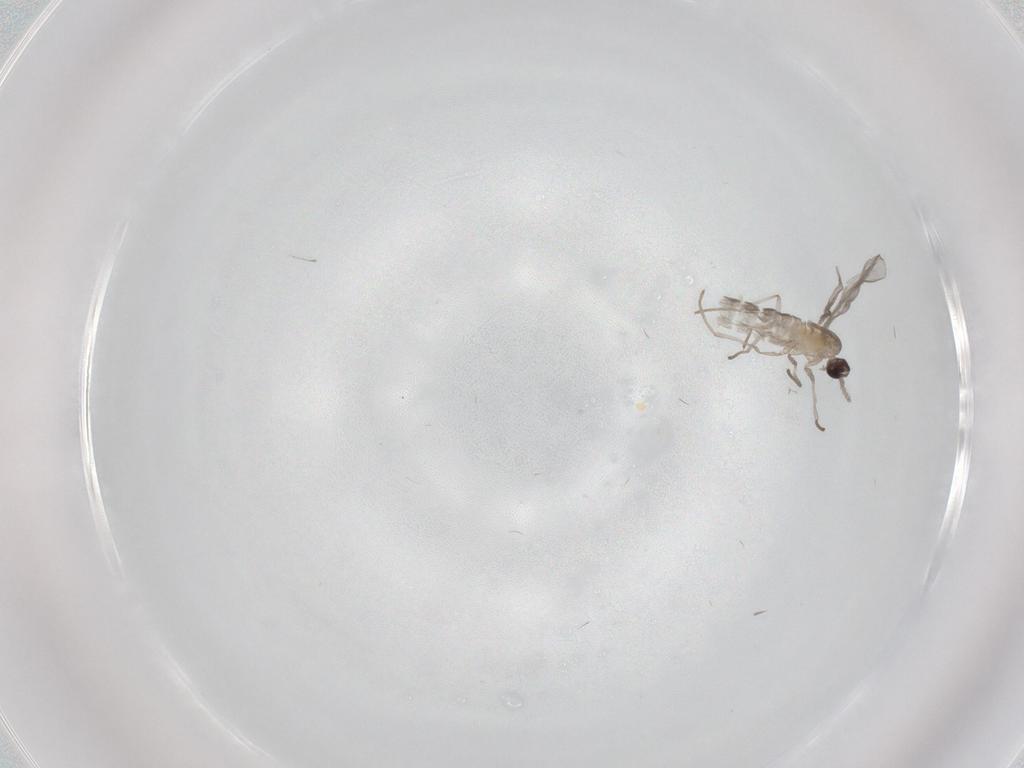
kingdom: Animalia
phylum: Arthropoda
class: Insecta
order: Diptera
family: Cecidomyiidae
